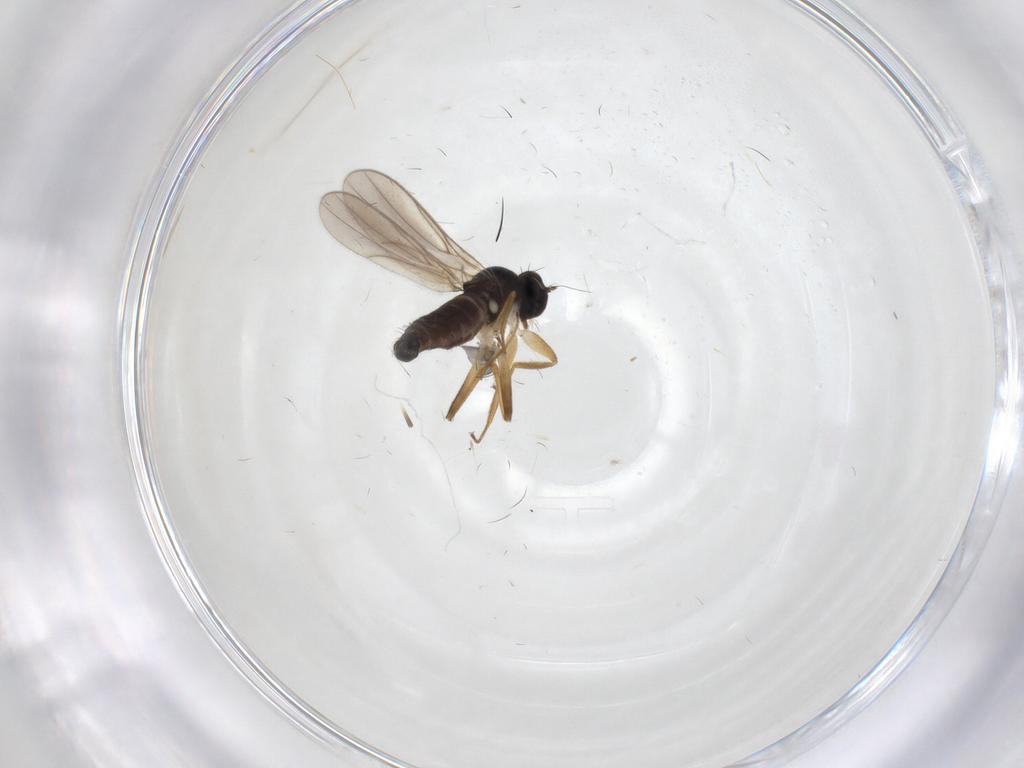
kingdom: Animalia
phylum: Arthropoda
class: Insecta
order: Diptera
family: Hybotidae
